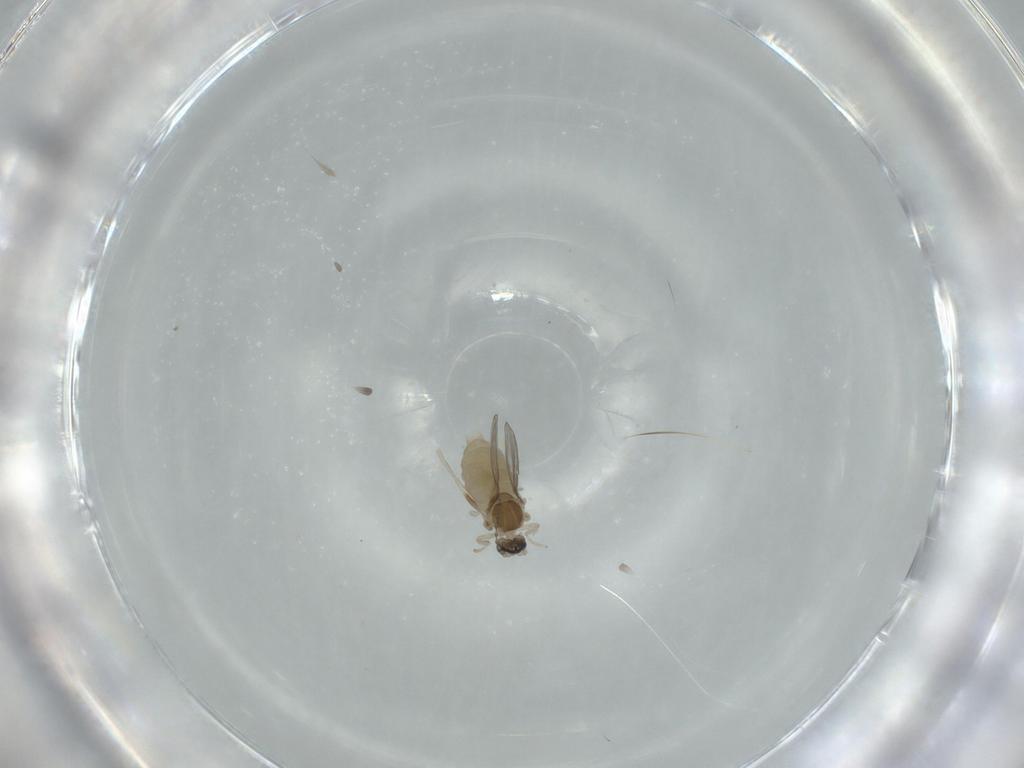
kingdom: Animalia
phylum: Arthropoda
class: Insecta
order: Diptera
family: Cecidomyiidae
